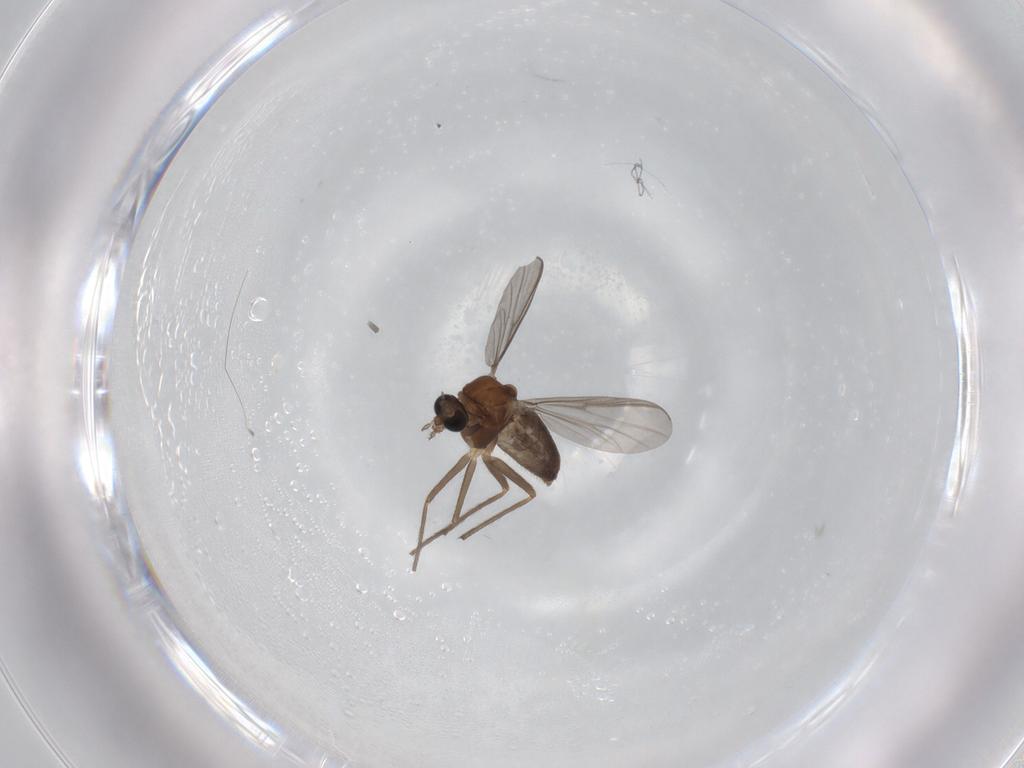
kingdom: Animalia
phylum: Arthropoda
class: Insecta
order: Diptera
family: Chironomidae
